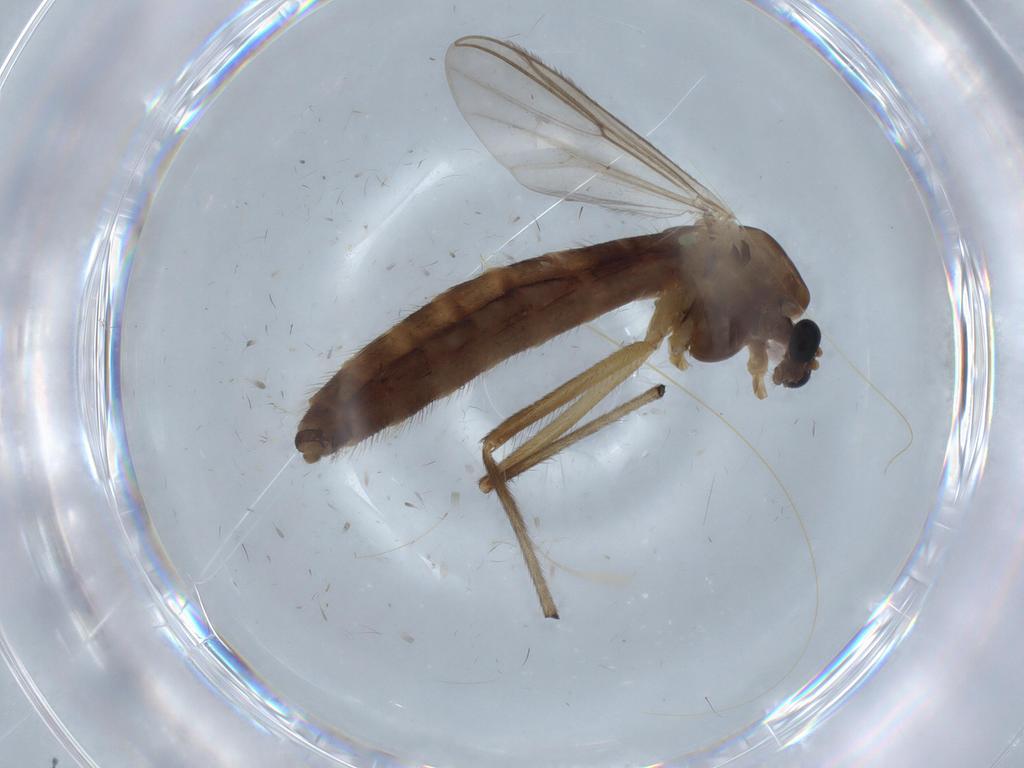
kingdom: Animalia
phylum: Arthropoda
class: Insecta
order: Diptera
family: Chironomidae
